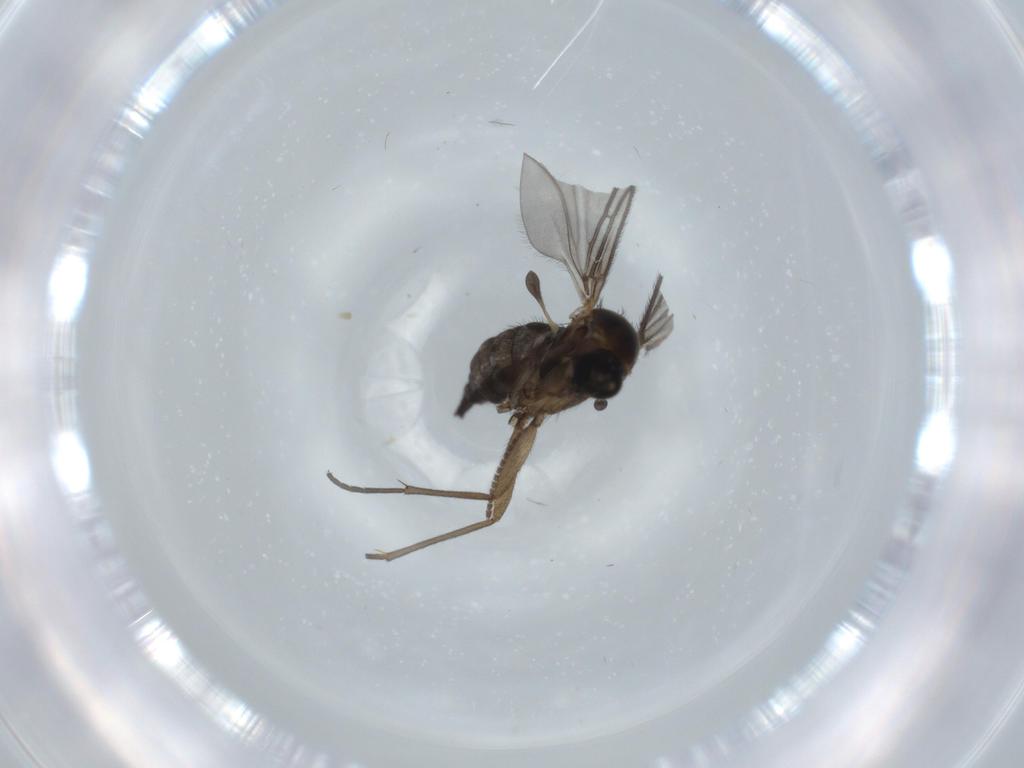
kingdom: Animalia
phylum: Arthropoda
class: Insecta
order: Diptera
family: Sciaridae
